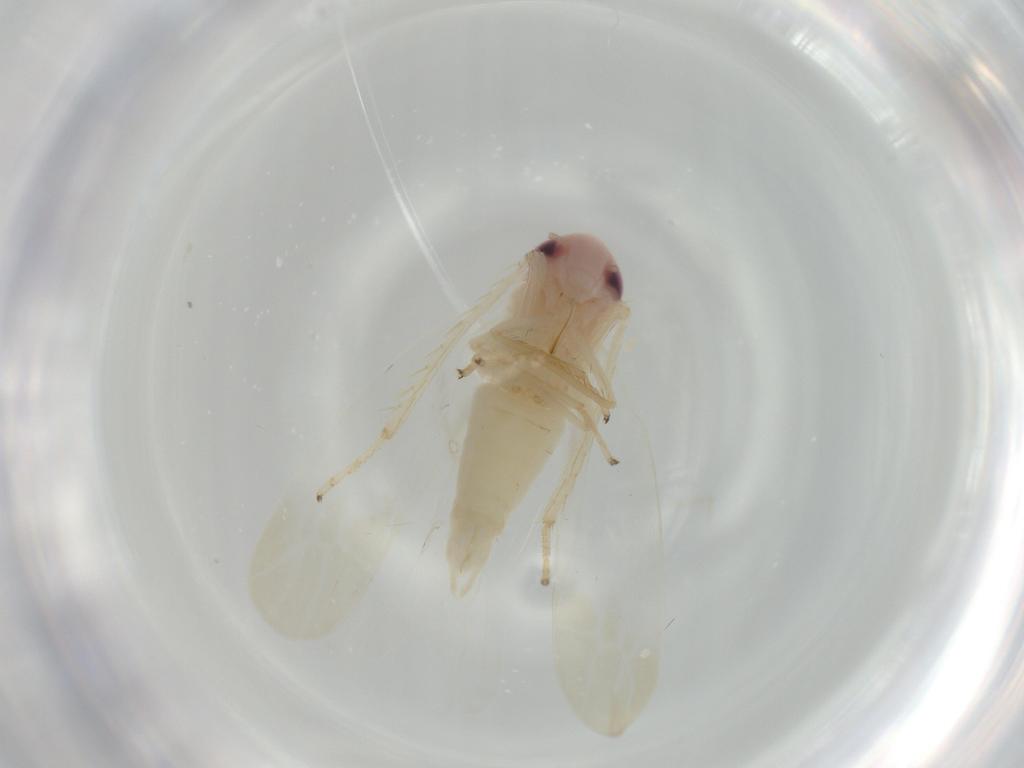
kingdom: Animalia
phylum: Arthropoda
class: Insecta
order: Hemiptera
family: Cicadellidae
